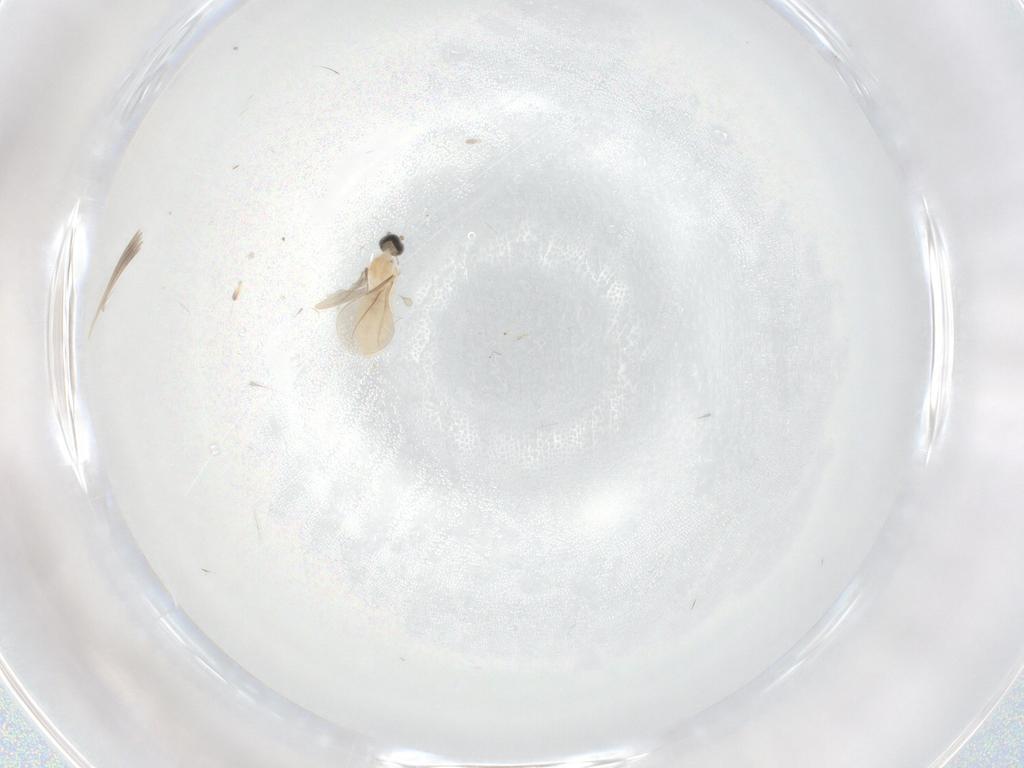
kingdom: Animalia
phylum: Arthropoda
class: Insecta
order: Diptera
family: Cecidomyiidae
